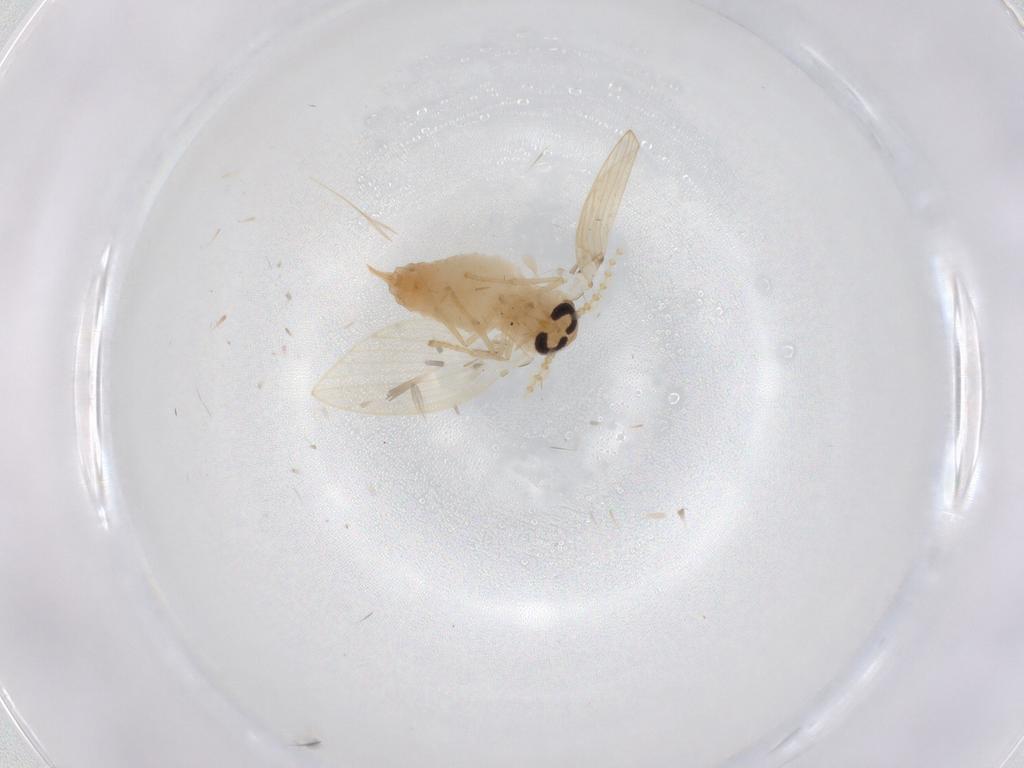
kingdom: Animalia
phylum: Arthropoda
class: Insecta
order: Diptera
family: Psychodidae
